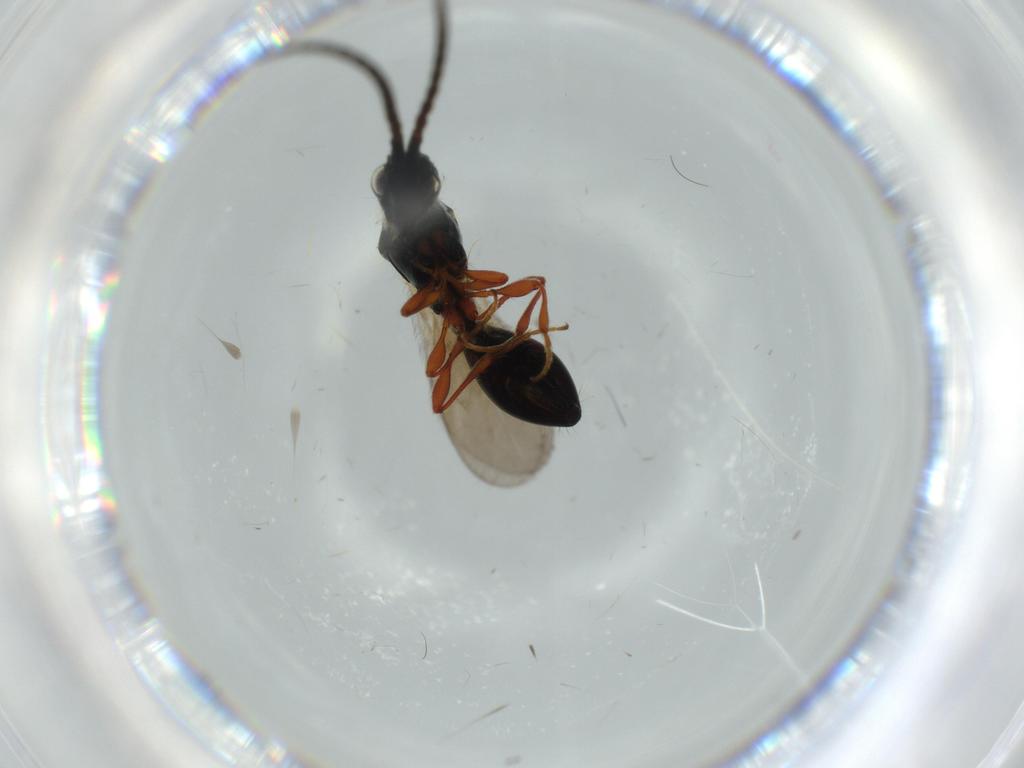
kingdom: Animalia
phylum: Arthropoda
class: Insecta
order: Hymenoptera
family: Diapriidae
